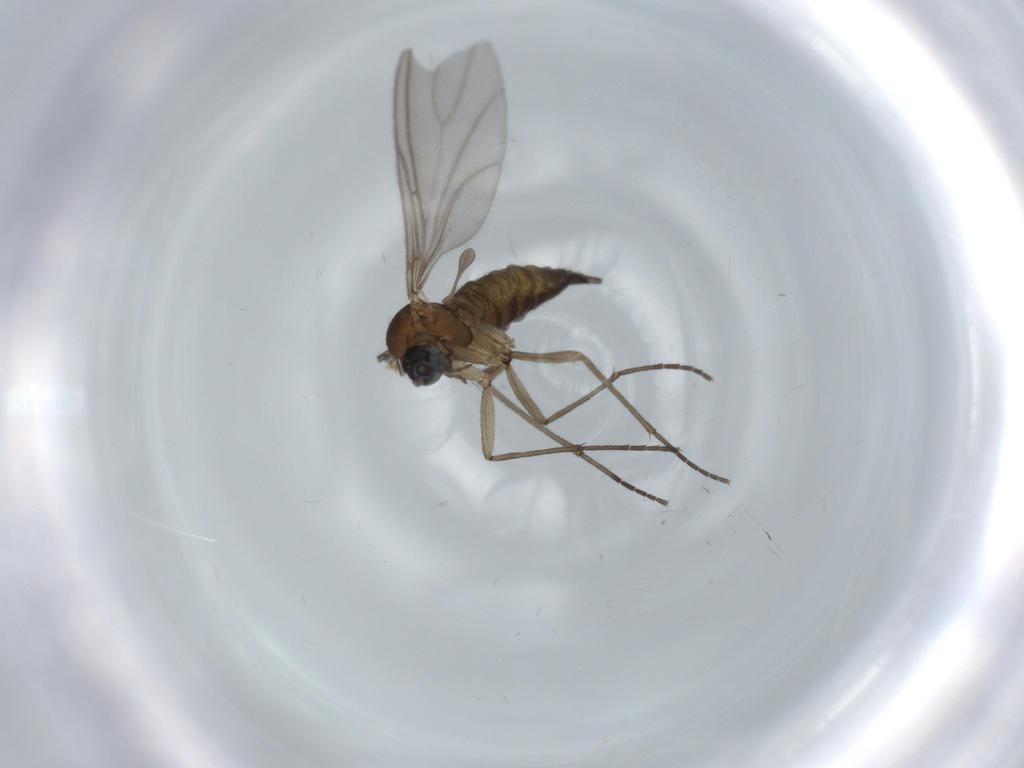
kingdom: Animalia
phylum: Arthropoda
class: Insecta
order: Diptera
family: Sciaridae
